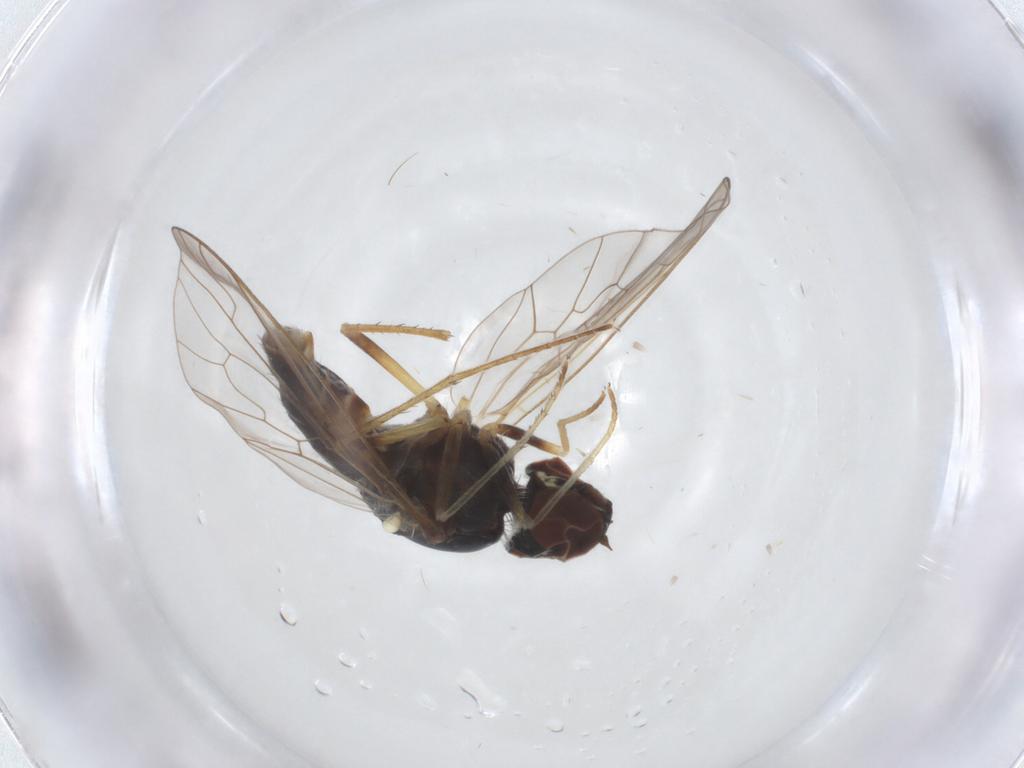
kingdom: Animalia
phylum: Arthropoda
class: Insecta
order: Diptera
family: Bombyliidae
